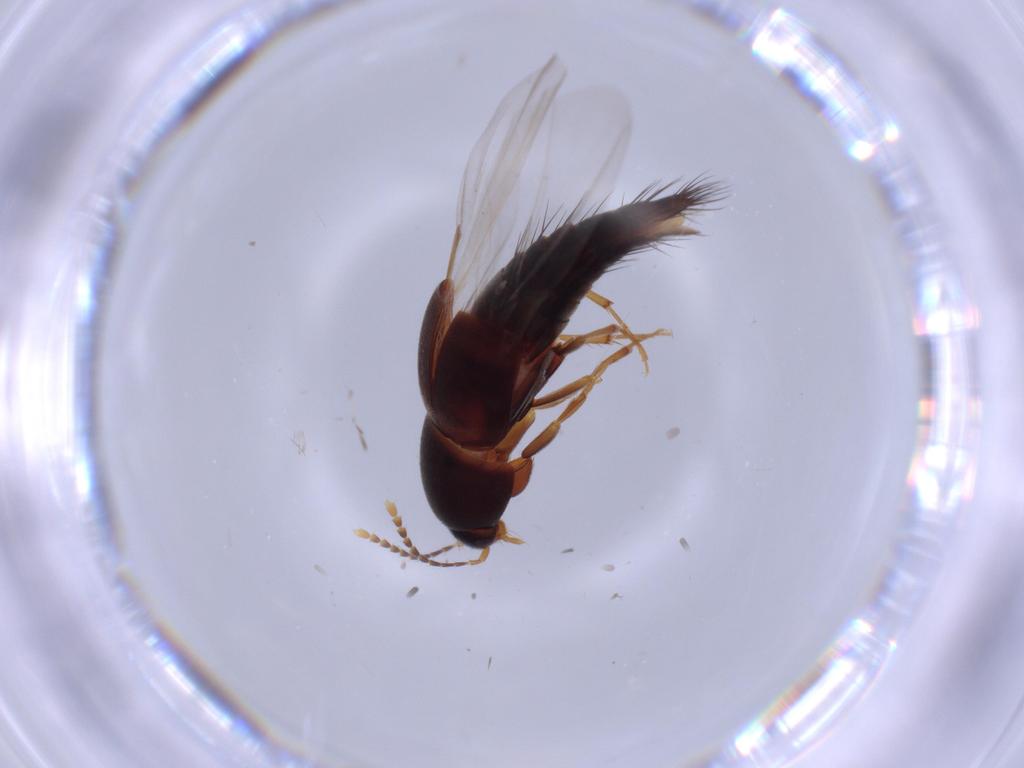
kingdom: Animalia
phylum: Arthropoda
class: Insecta
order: Coleoptera
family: Staphylinidae
